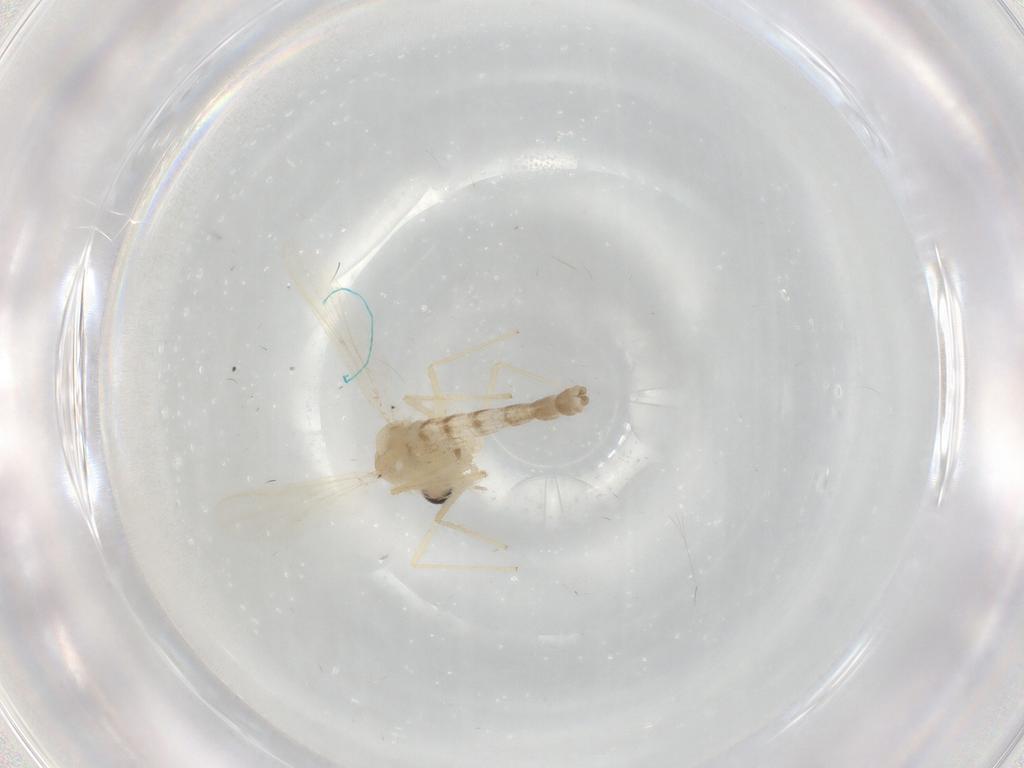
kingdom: Animalia
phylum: Arthropoda
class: Insecta
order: Diptera
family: Chironomidae
